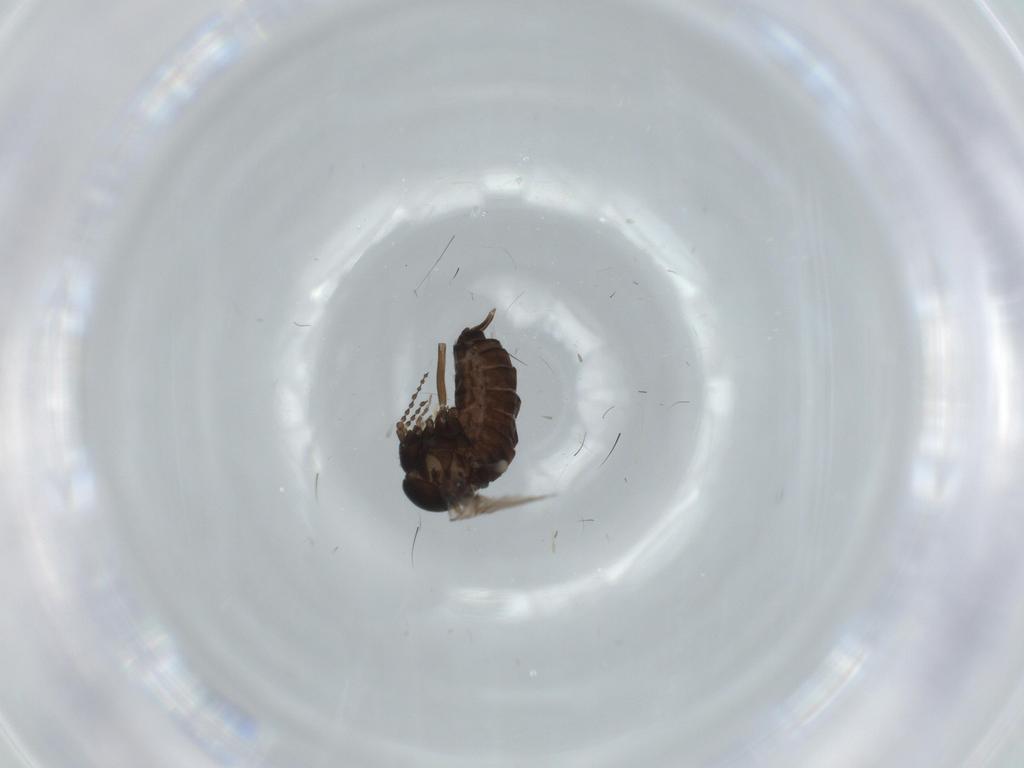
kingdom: Animalia
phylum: Arthropoda
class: Insecta
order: Diptera
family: Psychodidae
